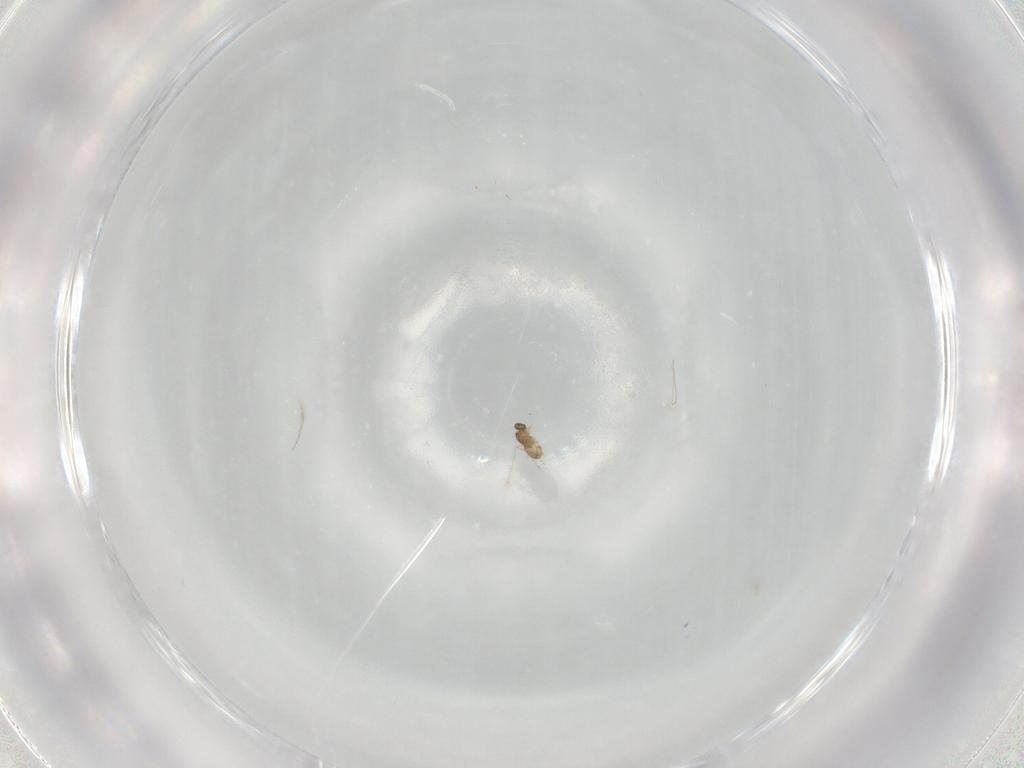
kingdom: Animalia
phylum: Arthropoda
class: Insecta
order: Hymenoptera
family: Mymaridae
